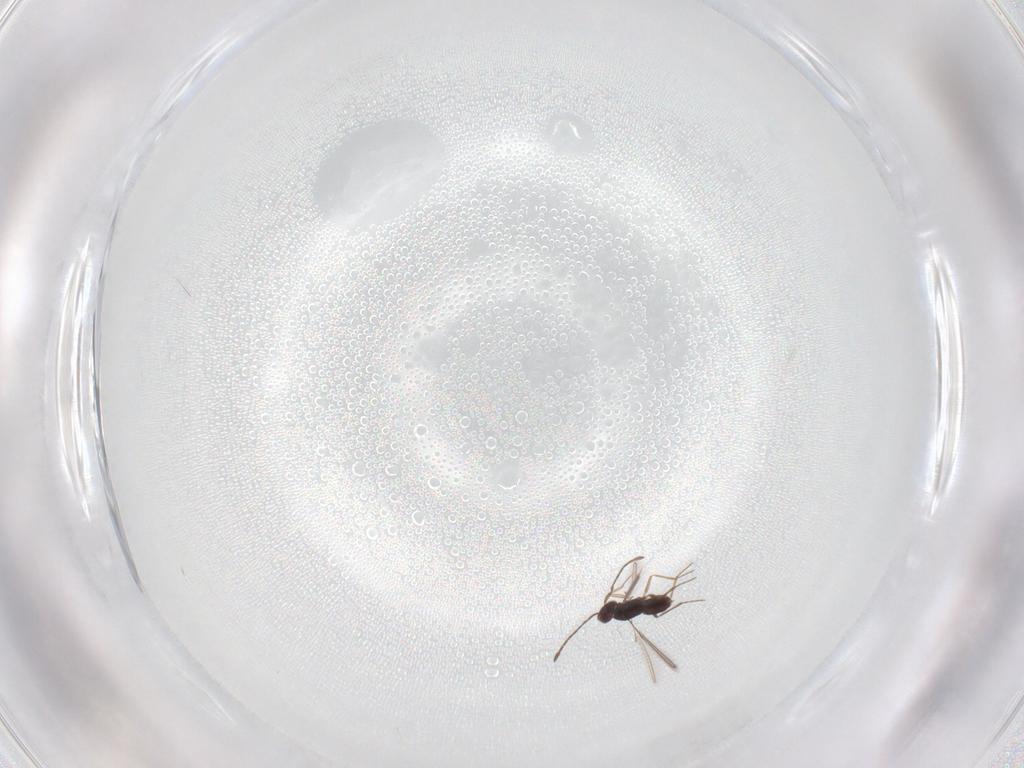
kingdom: Animalia
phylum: Arthropoda
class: Insecta
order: Hymenoptera
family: Mymaridae
